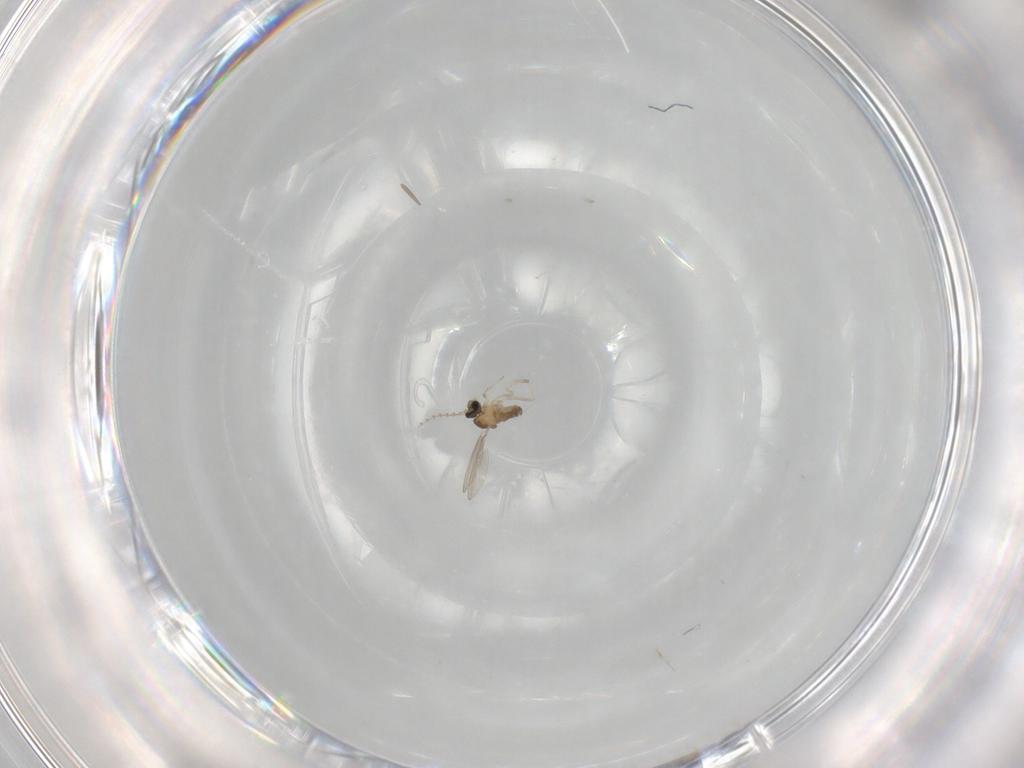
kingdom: Animalia
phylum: Arthropoda
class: Insecta
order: Diptera
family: Cecidomyiidae
